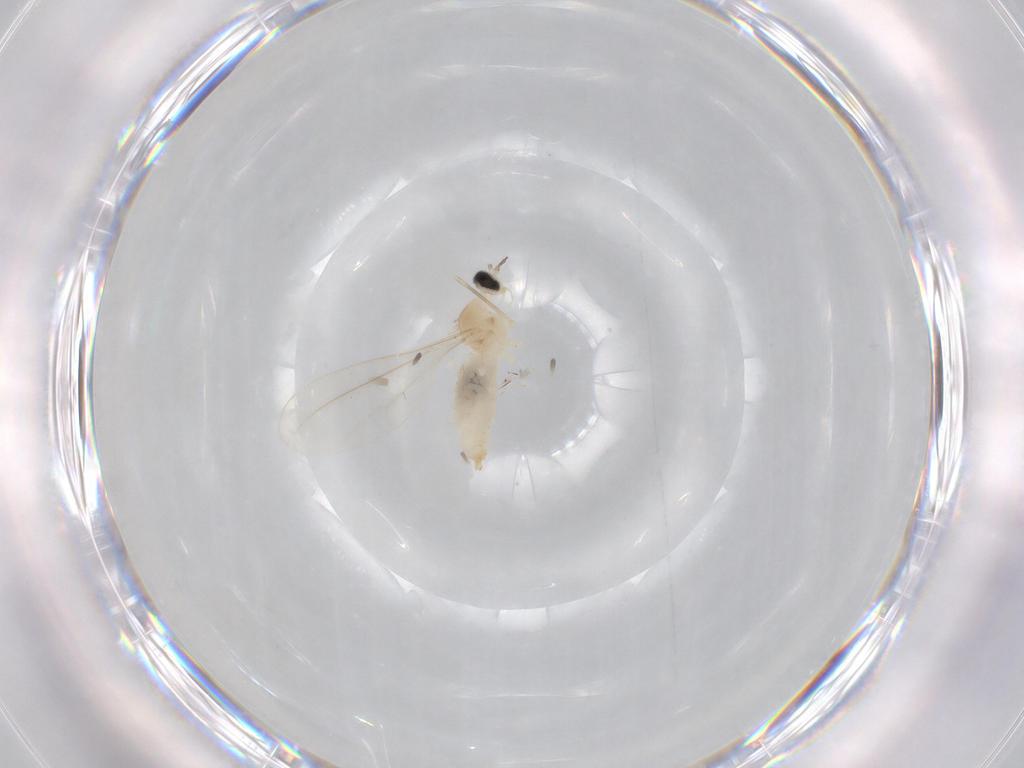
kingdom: Animalia
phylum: Arthropoda
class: Insecta
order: Diptera
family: Cecidomyiidae
